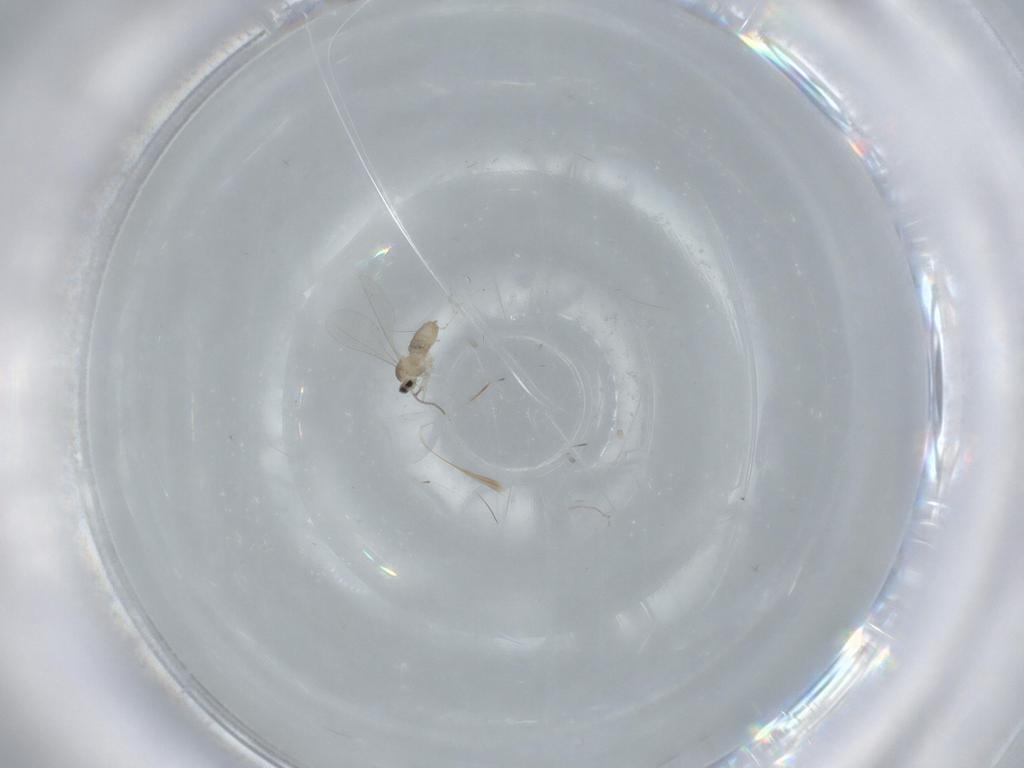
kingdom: Animalia
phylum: Arthropoda
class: Insecta
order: Diptera
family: Cecidomyiidae
